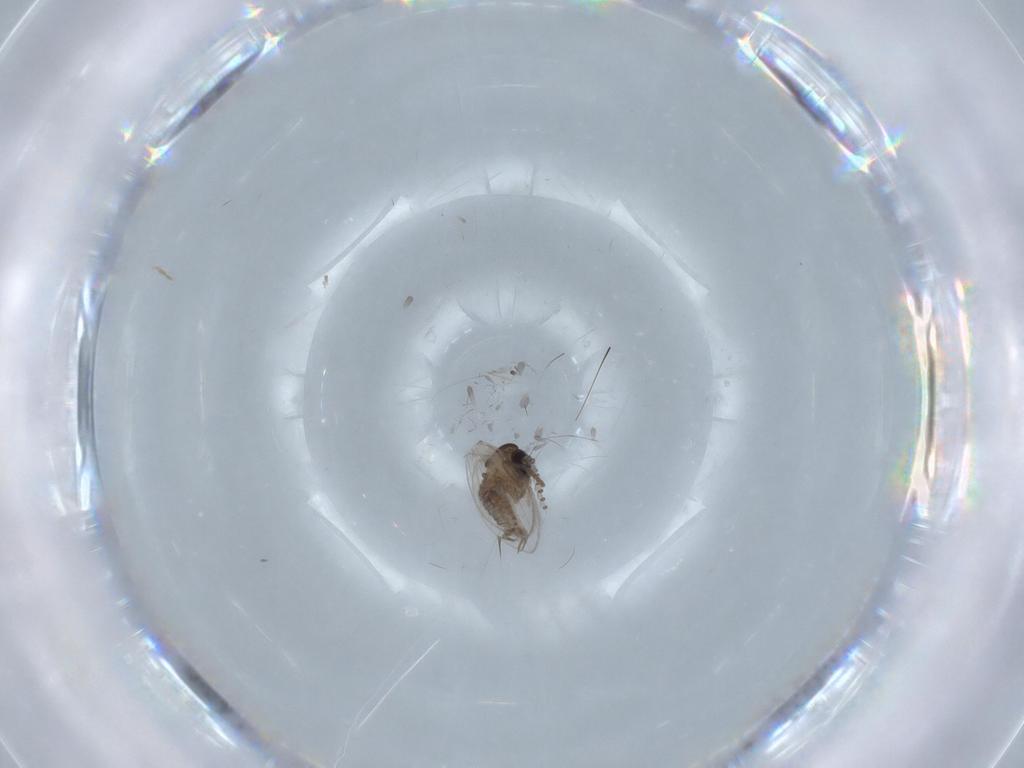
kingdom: Animalia
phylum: Arthropoda
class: Insecta
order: Diptera
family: Psychodidae
